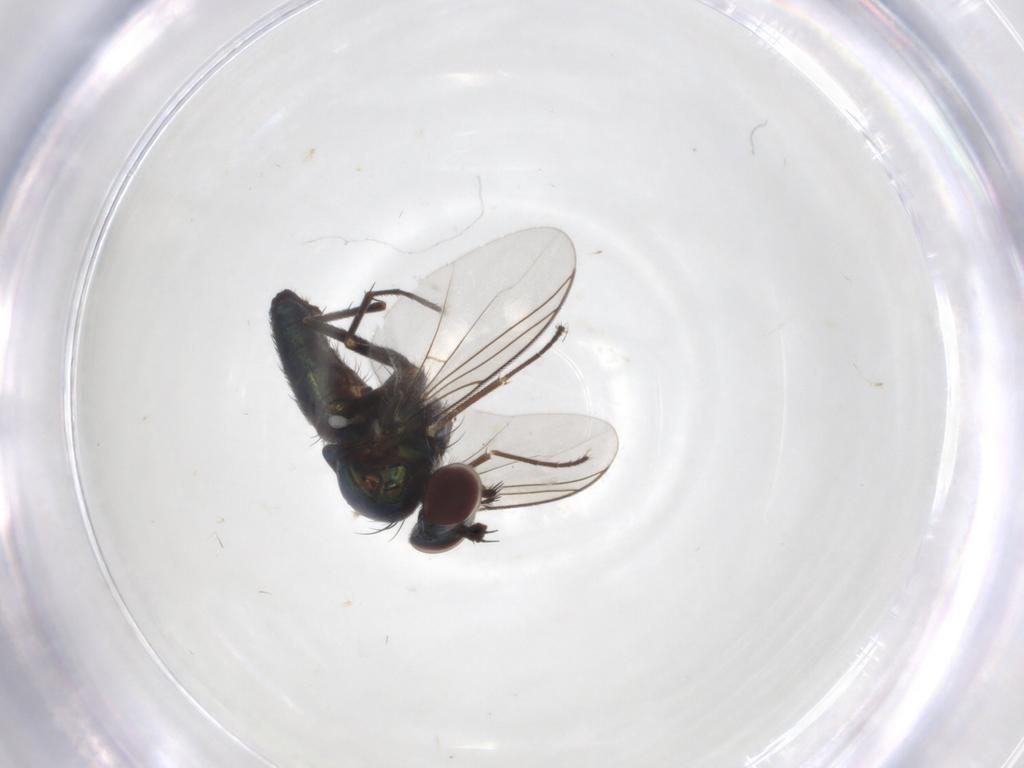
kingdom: Animalia
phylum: Arthropoda
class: Insecta
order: Diptera
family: Dolichopodidae
